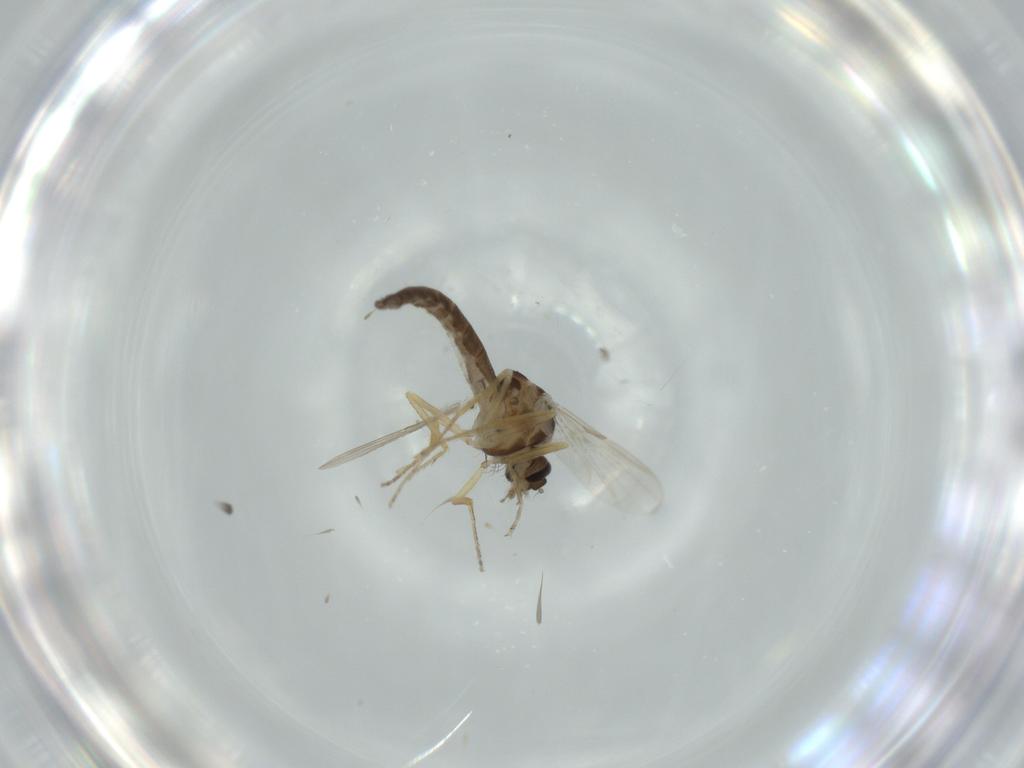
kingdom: Animalia
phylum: Arthropoda
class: Insecta
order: Diptera
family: Ceratopogonidae
